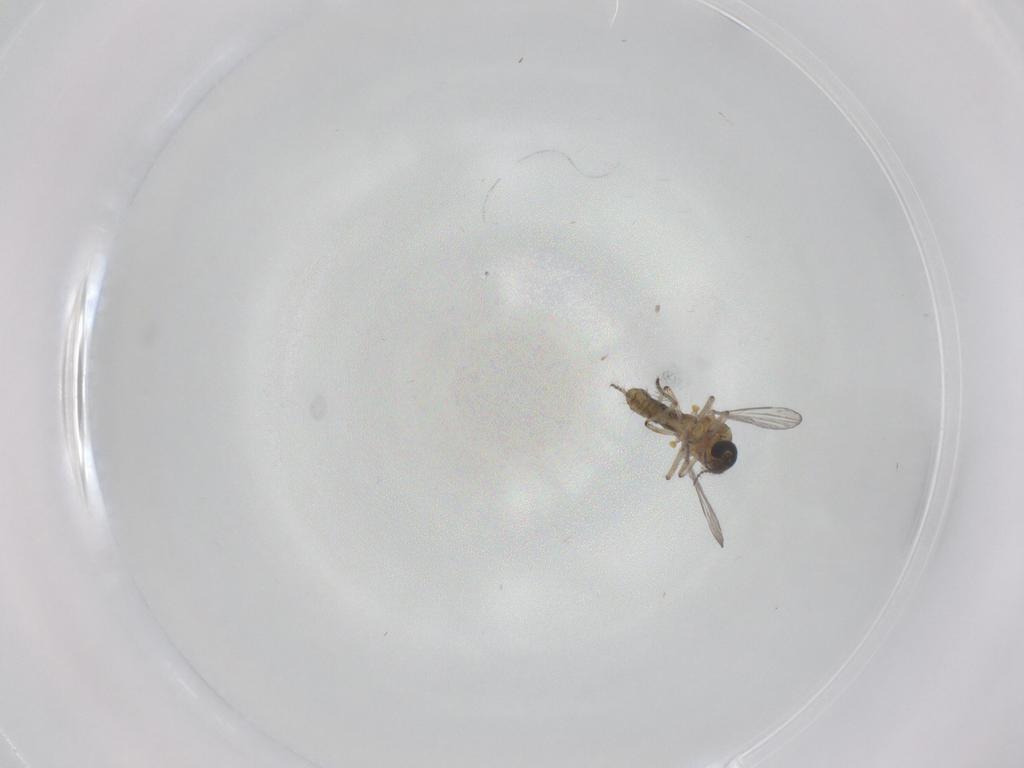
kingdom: Animalia
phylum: Arthropoda
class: Insecta
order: Diptera
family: Ceratopogonidae
